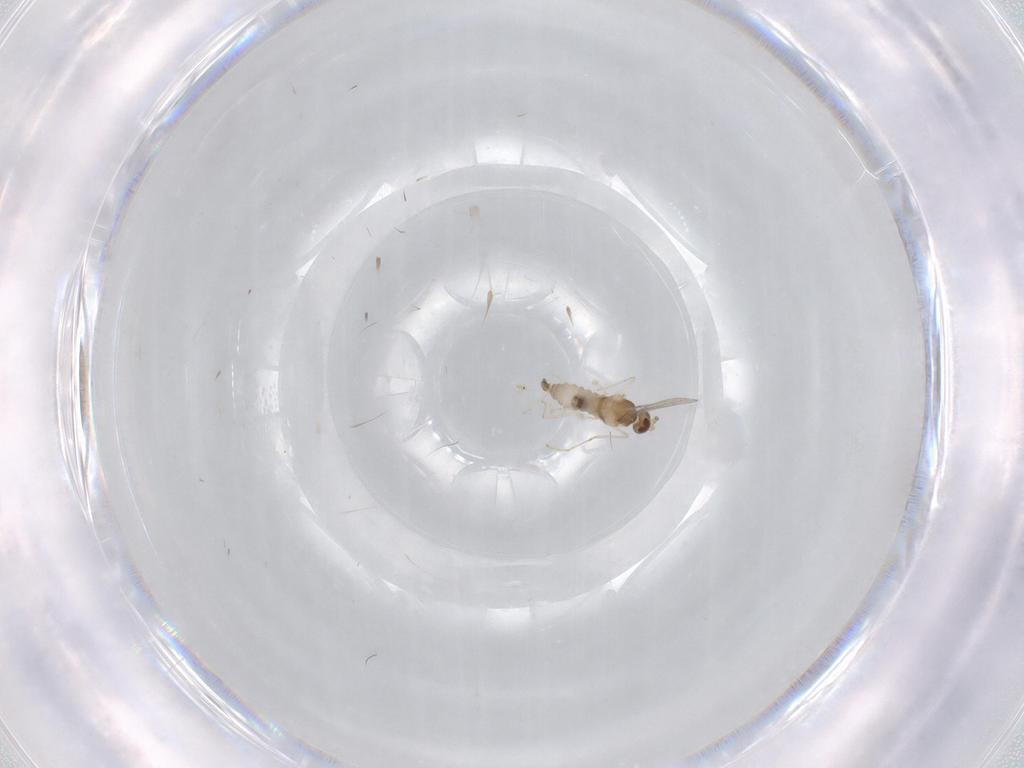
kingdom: Animalia
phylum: Arthropoda
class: Insecta
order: Diptera
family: Cecidomyiidae
